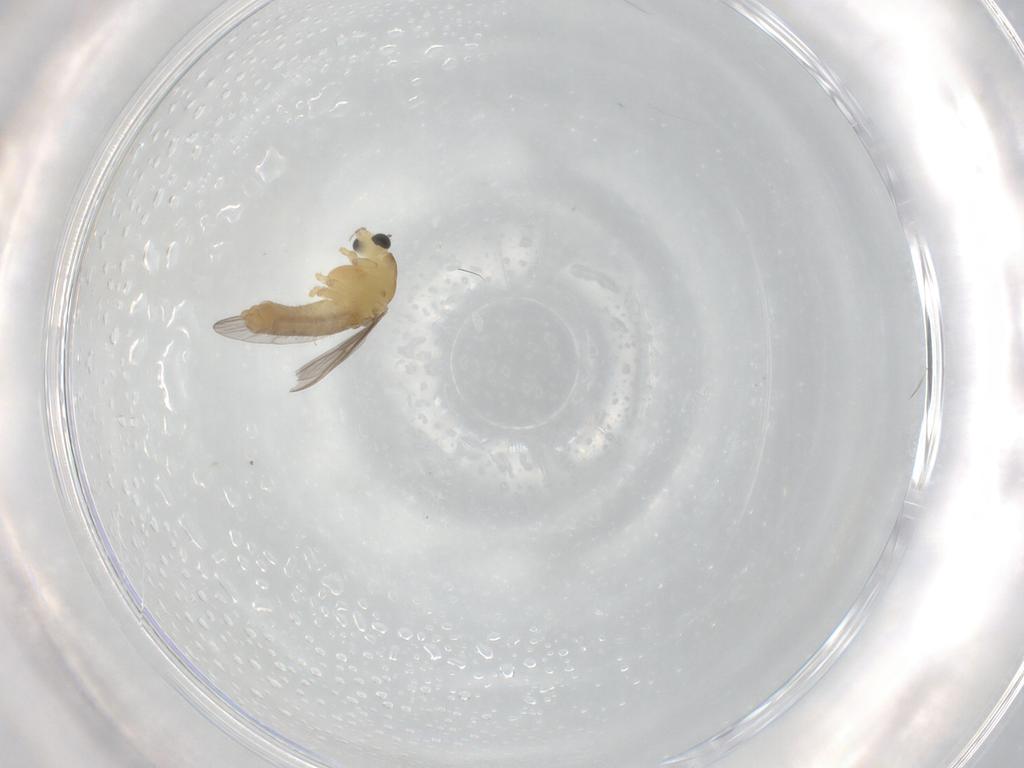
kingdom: Animalia
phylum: Arthropoda
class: Insecta
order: Diptera
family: Chironomidae
